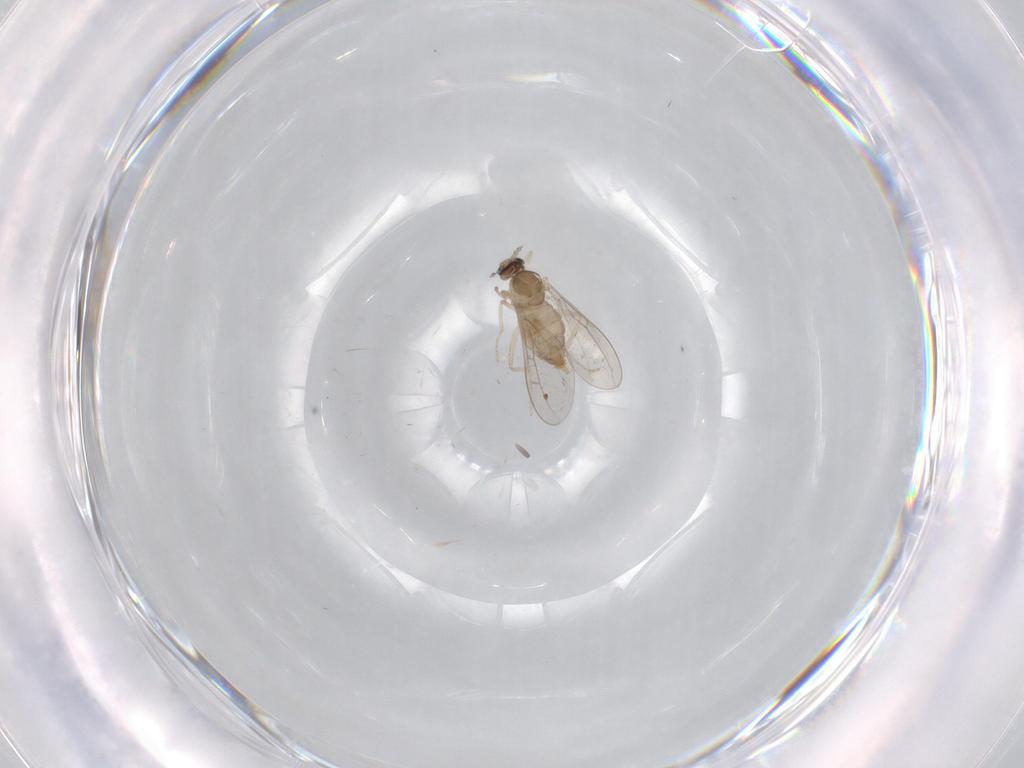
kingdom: Animalia
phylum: Arthropoda
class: Insecta
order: Diptera
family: Cecidomyiidae
